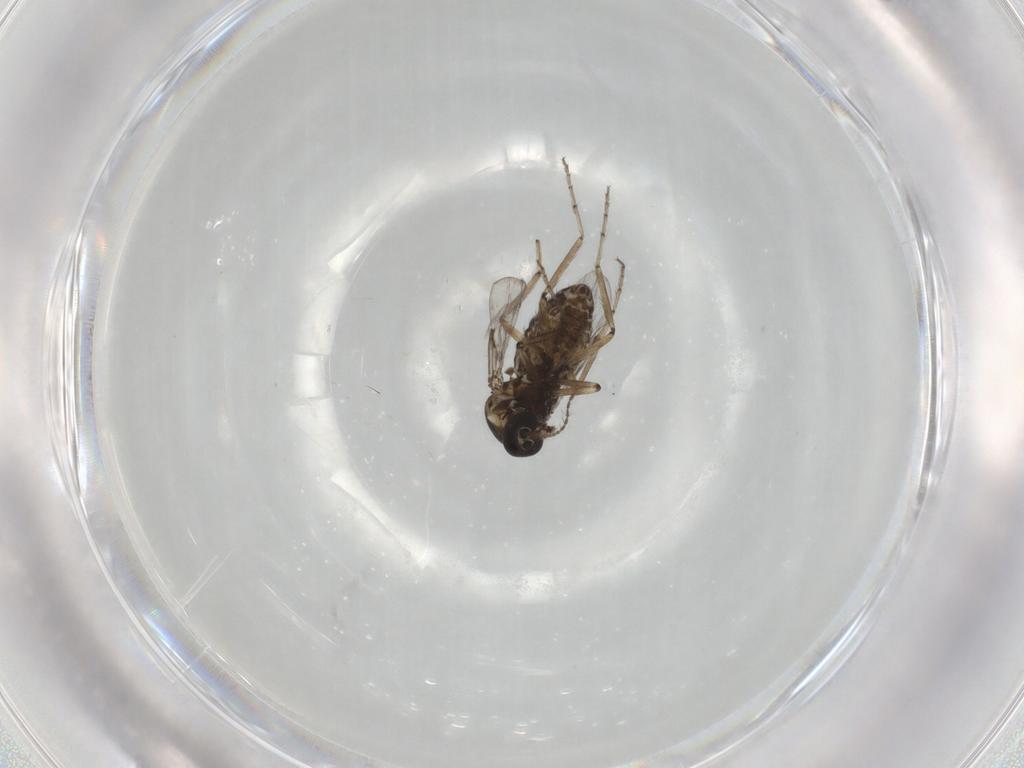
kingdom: Animalia
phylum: Arthropoda
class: Insecta
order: Diptera
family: Ceratopogonidae
